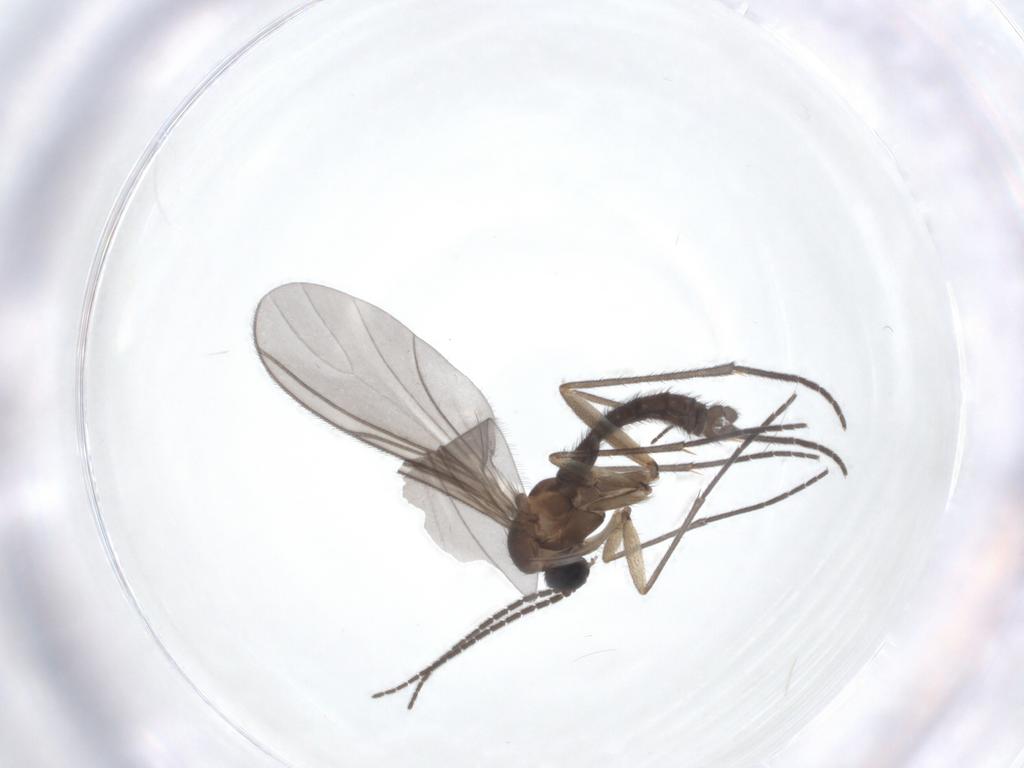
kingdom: Animalia
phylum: Arthropoda
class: Insecta
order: Diptera
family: Sciaridae
